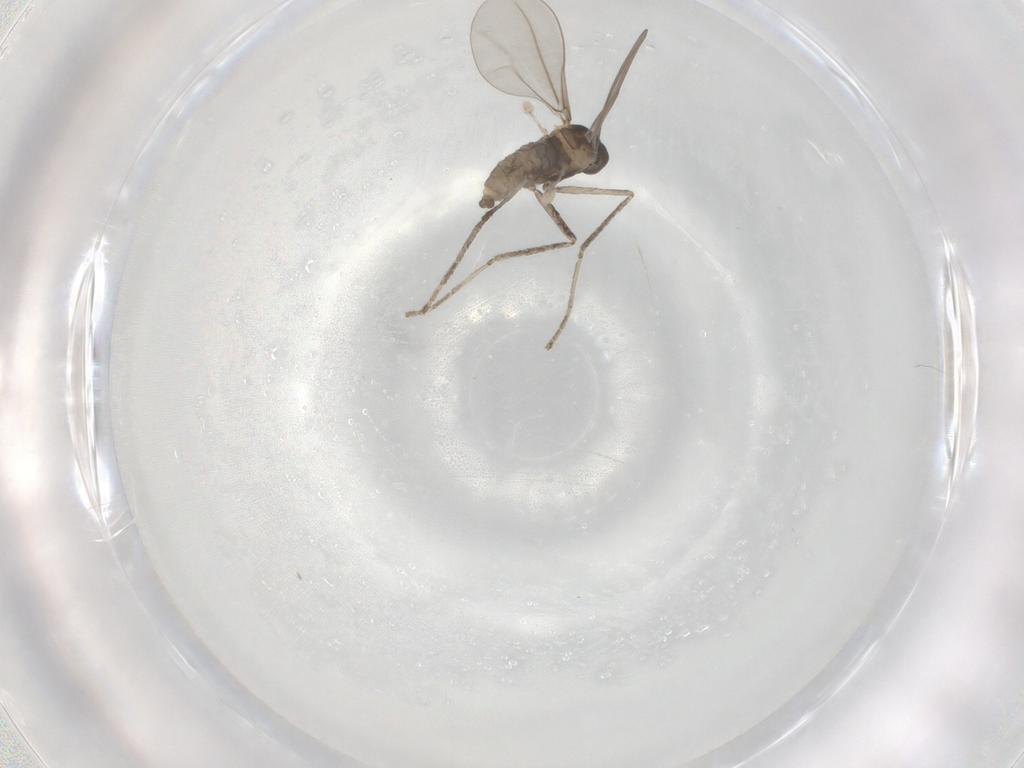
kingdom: Animalia
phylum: Arthropoda
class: Insecta
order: Diptera
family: Cecidomyiidae
